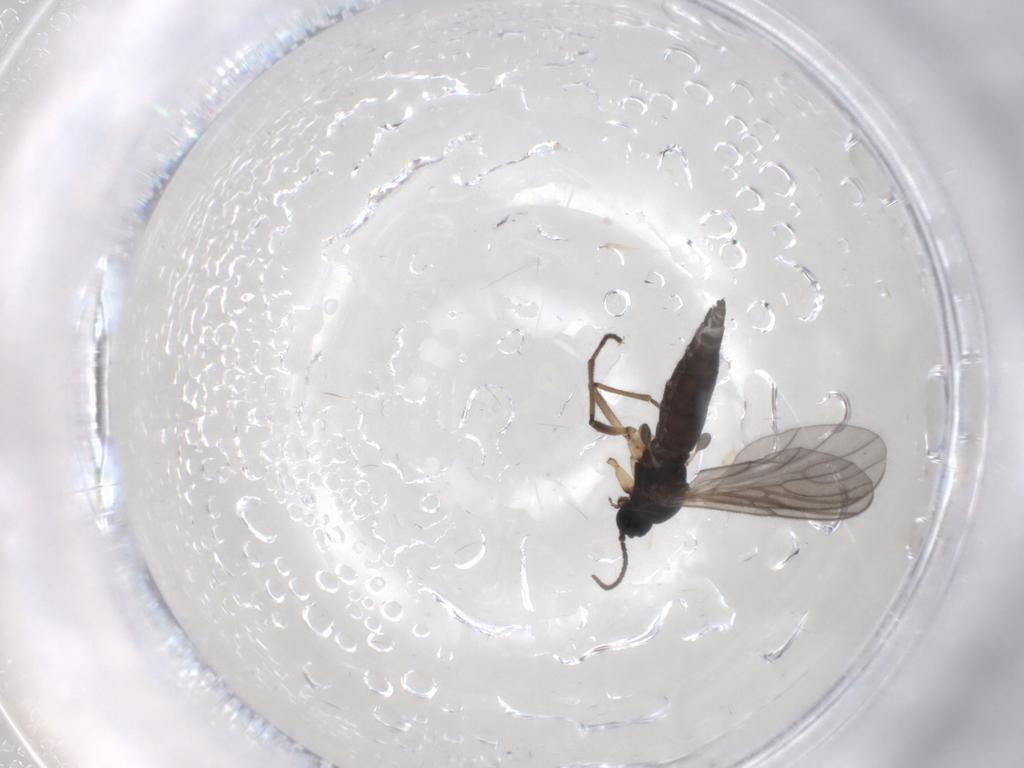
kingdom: Animalia
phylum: Arthropoda
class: Insecta
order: Diptera
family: Sciaridae
